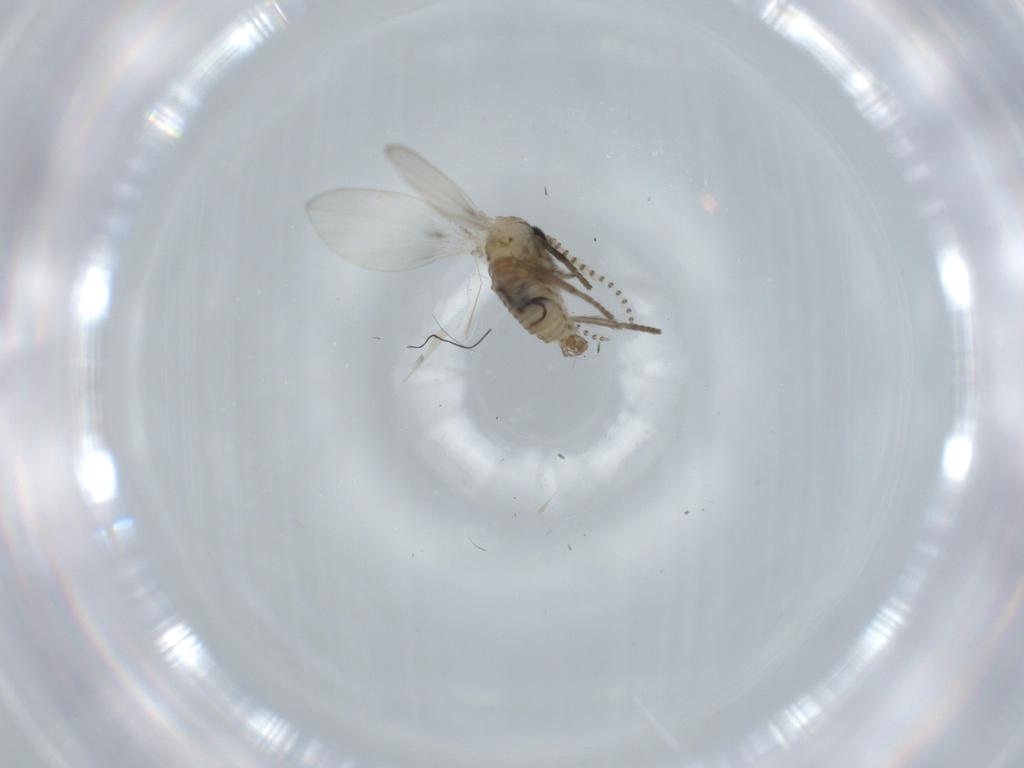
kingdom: Animalia
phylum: Arthropoda
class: Insecta
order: Diptera
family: Psychodidae
